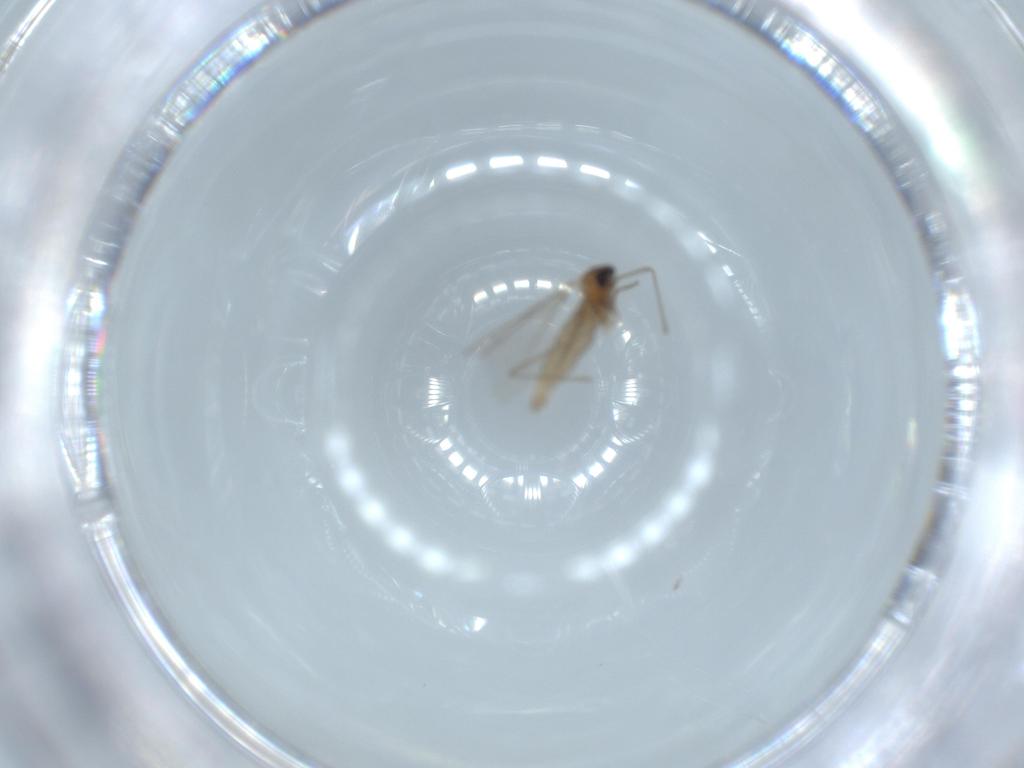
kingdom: Animalia
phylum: Arthropoda
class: Insecta
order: Diptera
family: Cecidomyiidae
